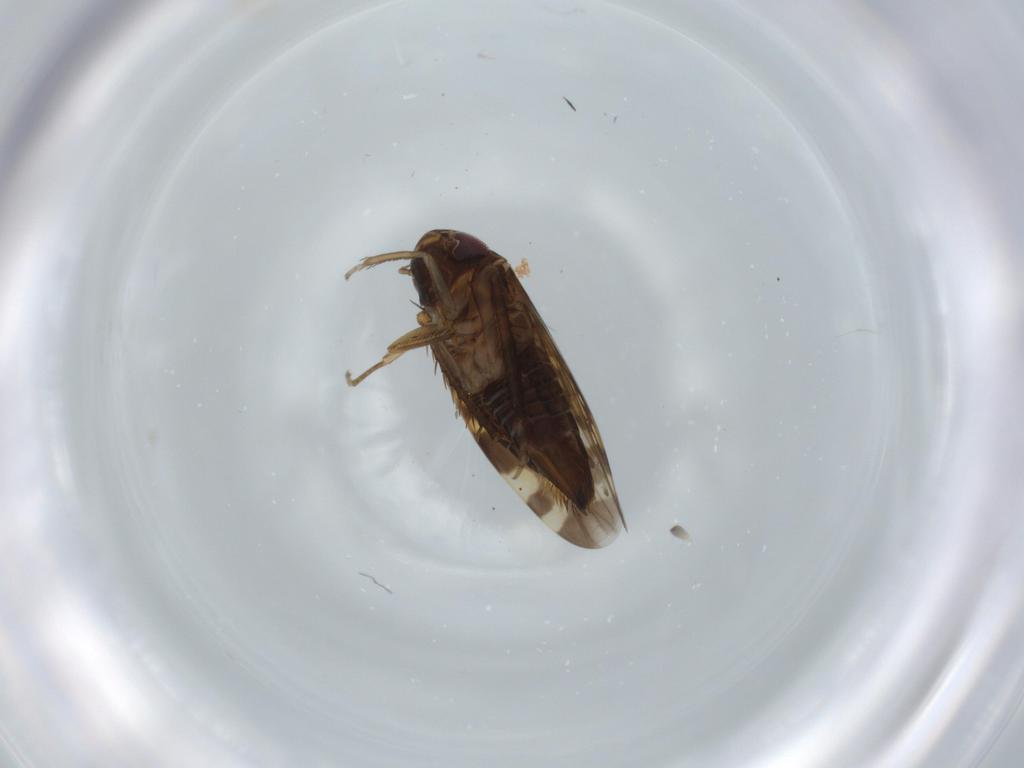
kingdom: Animalia
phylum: Arthropoda
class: Insecta
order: Hemiptera
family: Cicadellidae
